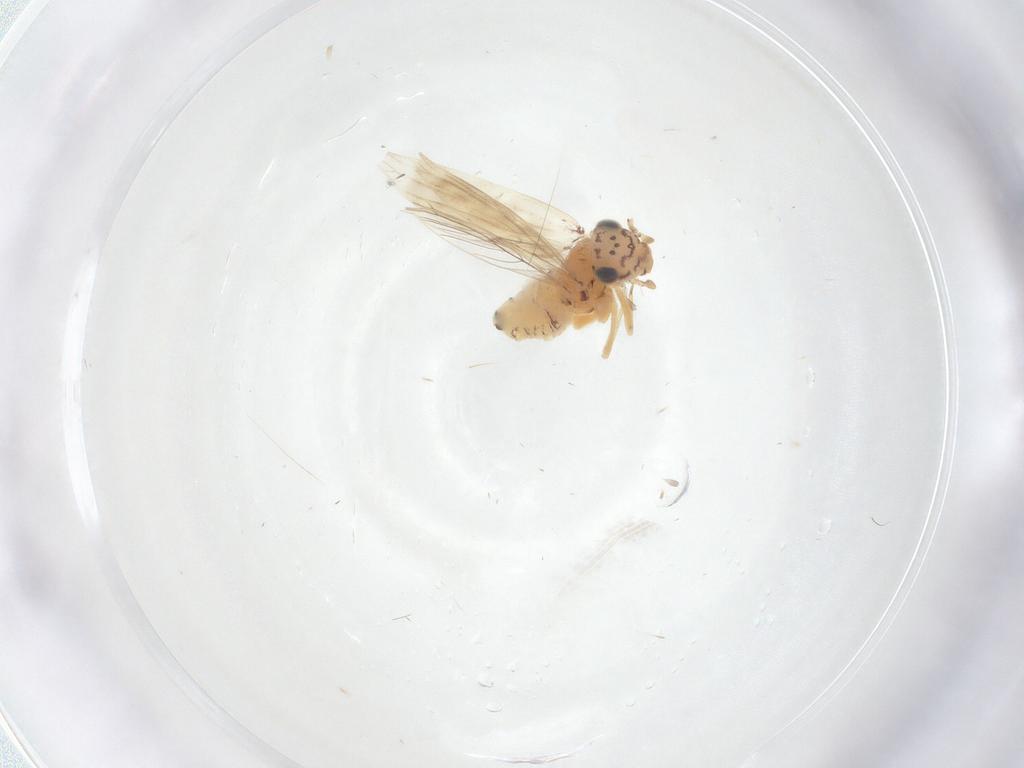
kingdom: Animalia
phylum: Arthropoda
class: Insecta
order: Psocodea
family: Lepidopsocidae
